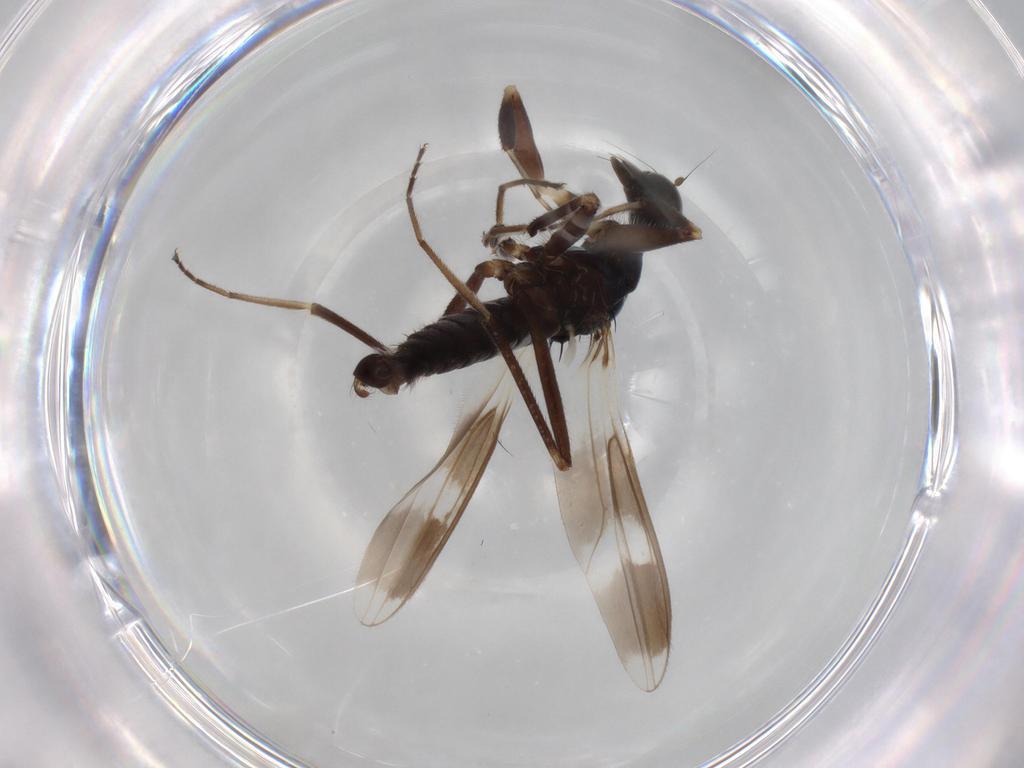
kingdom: Animalia
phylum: Arthropoda
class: Insecta
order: Diptera
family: Hybotidae
